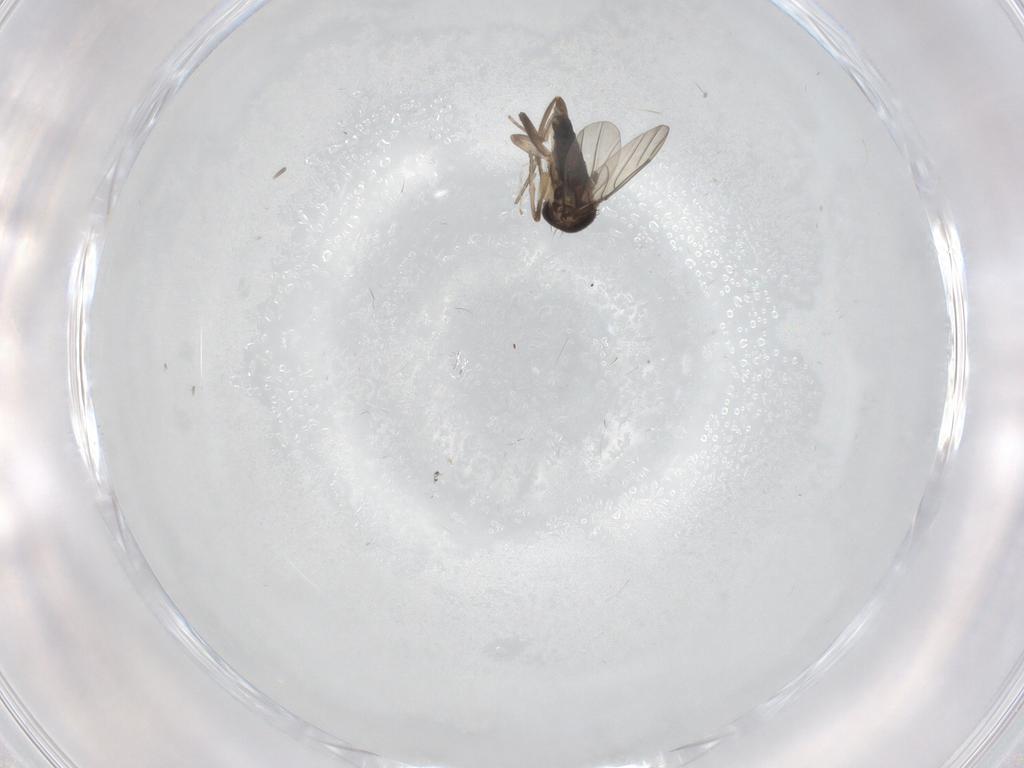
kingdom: Animalia
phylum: Arthropoda
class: Insecta
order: Diptera
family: Cecidomyiidae
